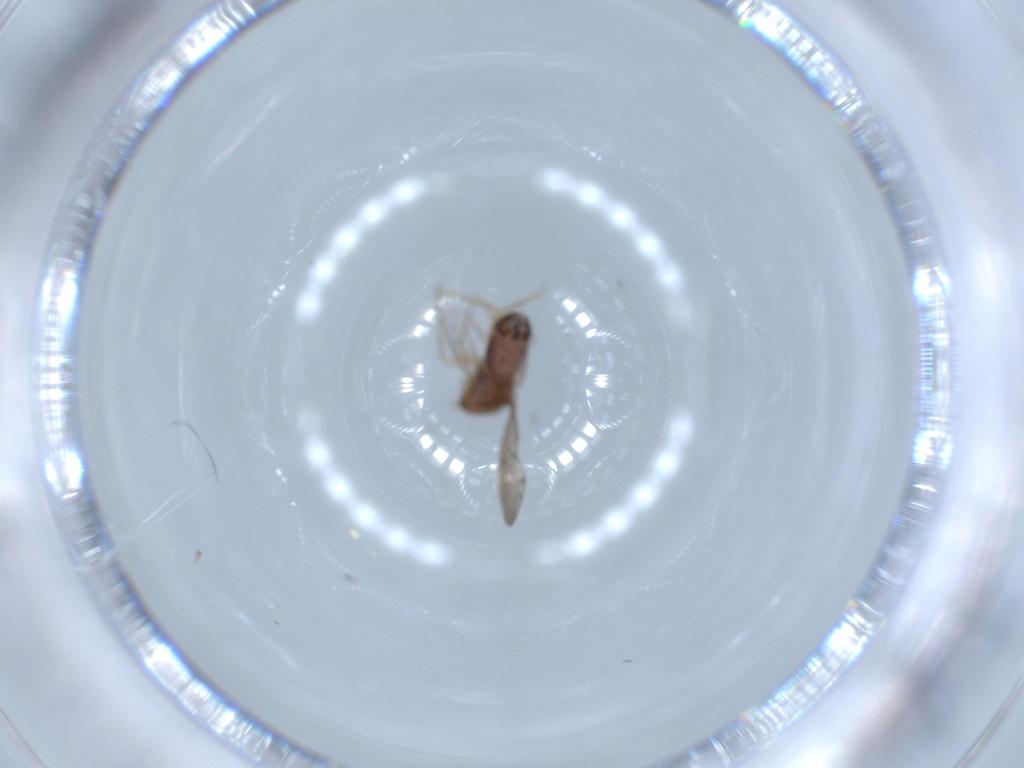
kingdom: Animalia
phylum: Arthropoda
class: Insecta
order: Psocodea
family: Ectopsocidae
